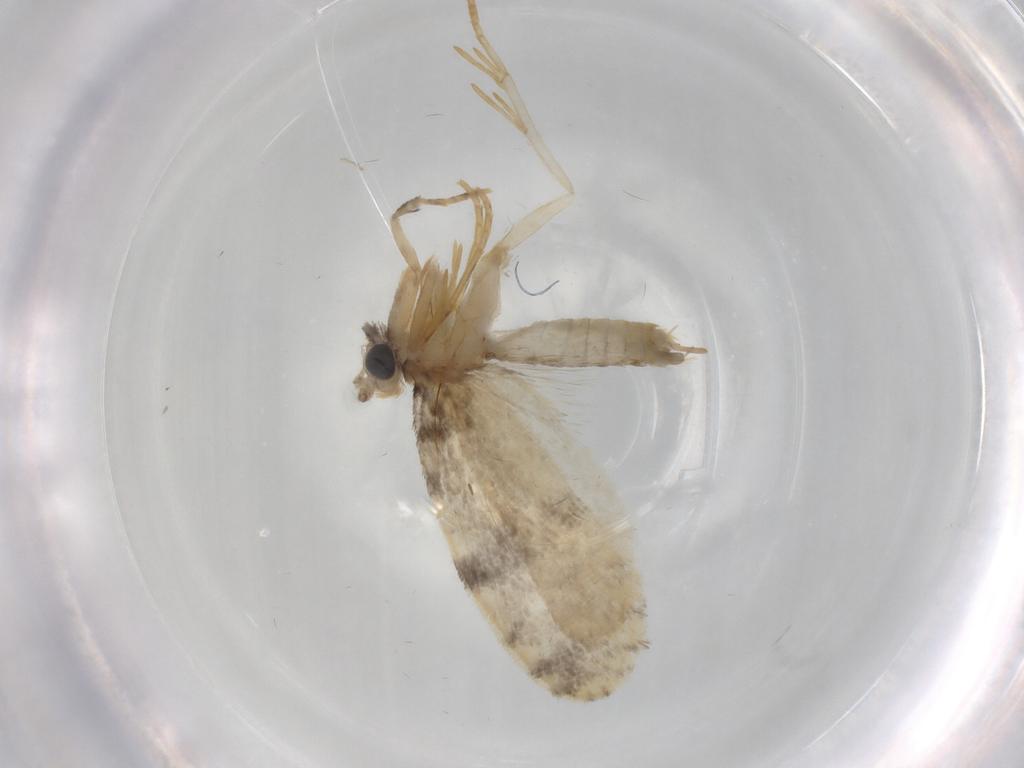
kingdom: Animalia
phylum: Arthropoda
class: Insecta
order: Lepidoptera
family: Psychidae
